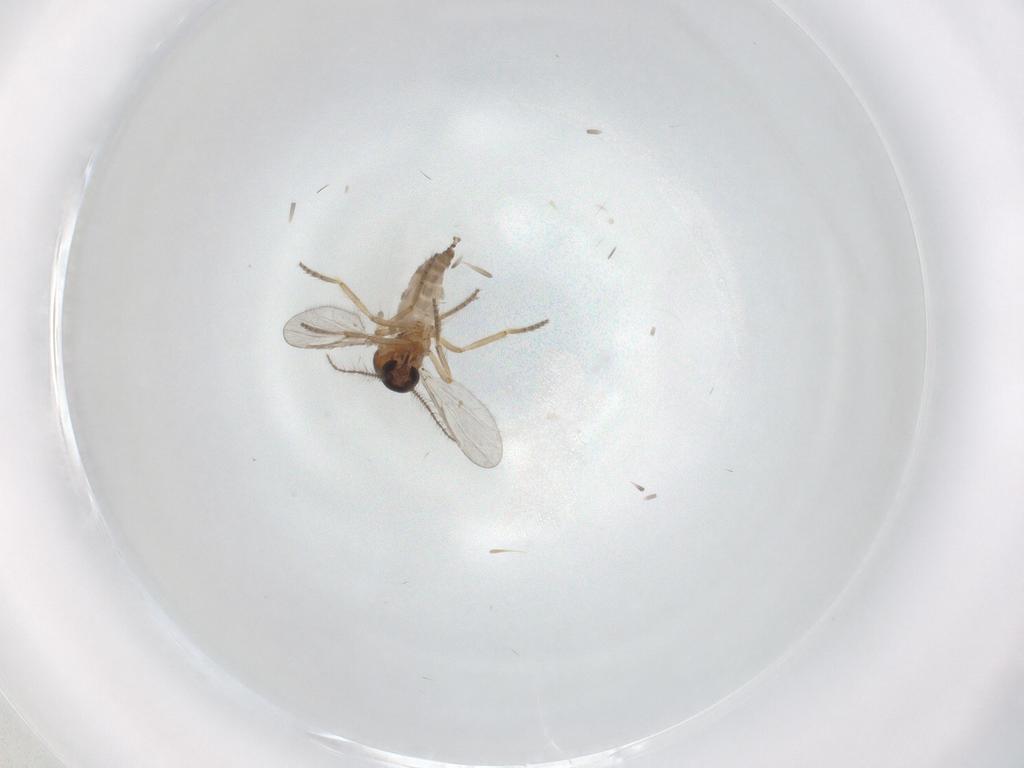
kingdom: Animalia
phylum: Arthropoda
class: Insecta
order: Diptera
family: Ceratopogonidae
